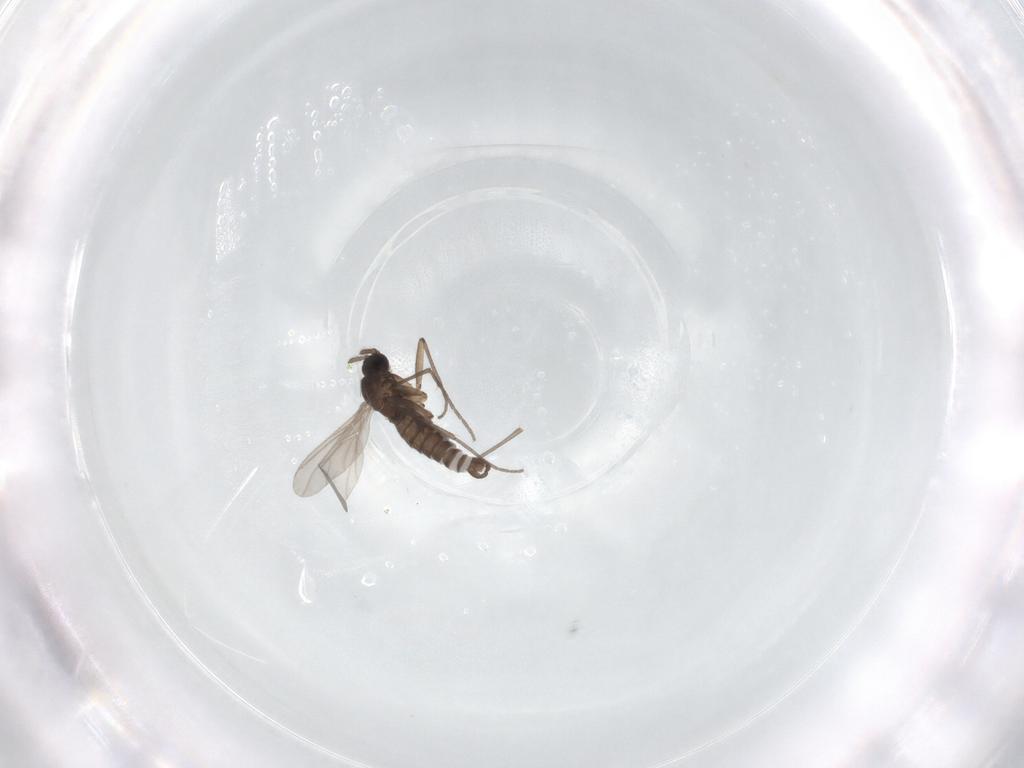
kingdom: Animalia
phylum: Arthropoda
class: Insecta
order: Diptera
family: Sciaridae
